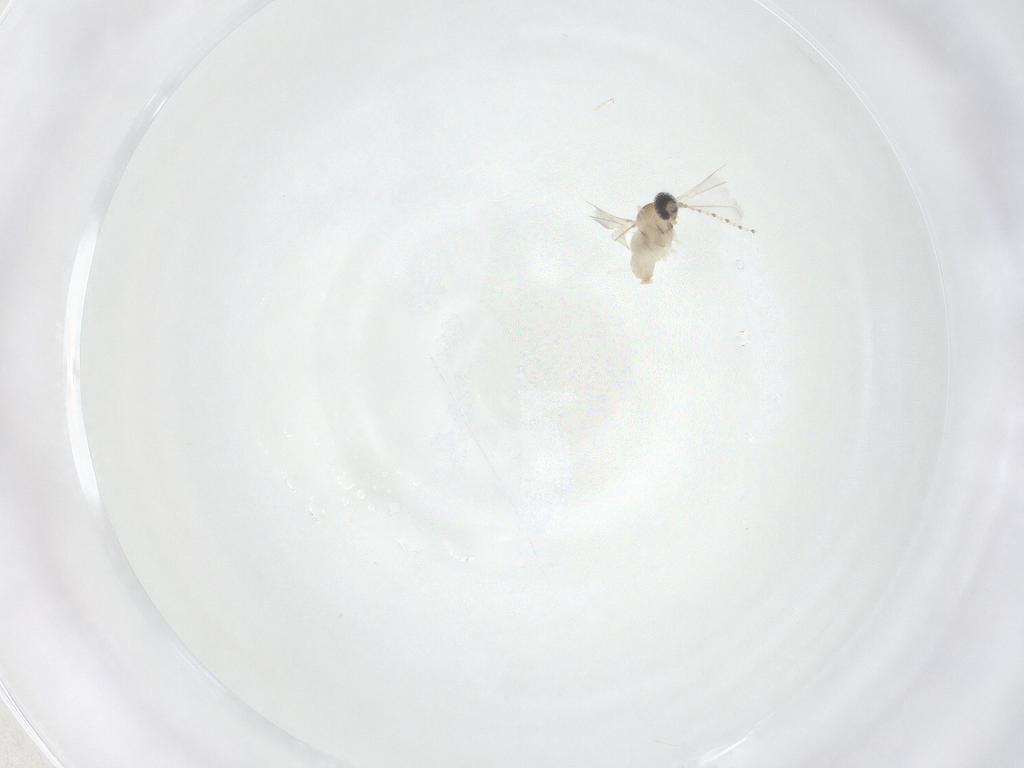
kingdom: Animalia
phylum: Arthropoda
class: Insecta
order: Diptera
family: Cecidomyiidae
